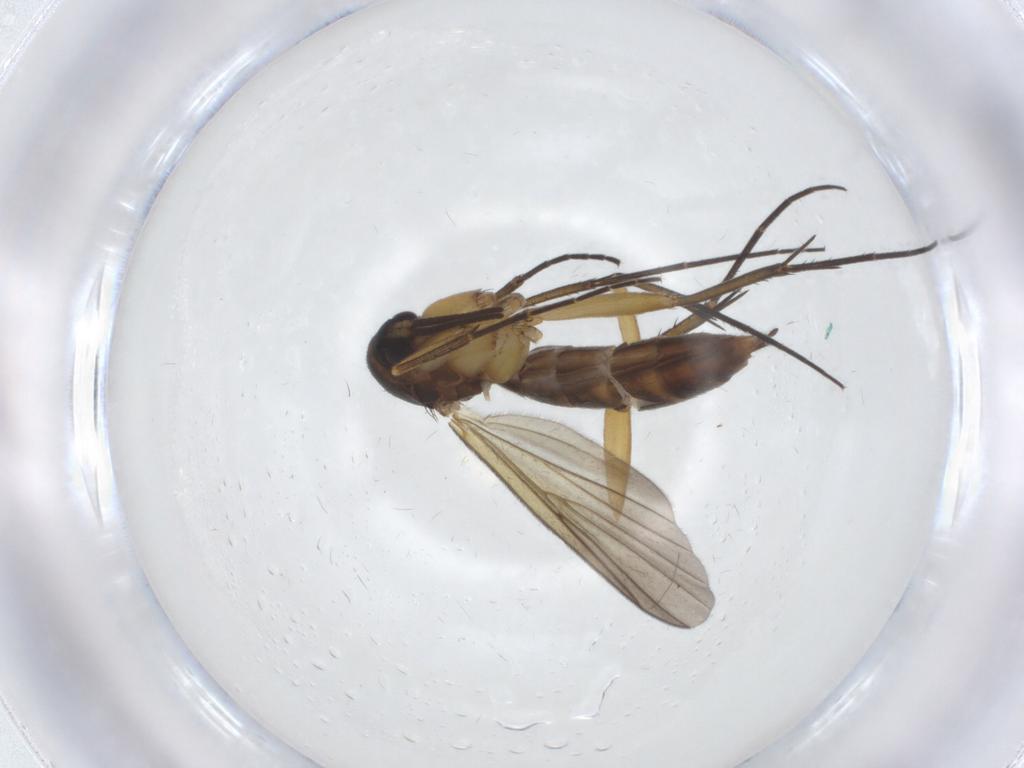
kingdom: Animalia
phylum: Arthropoda
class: Insecta
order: Diptera
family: Mycetophilidae
